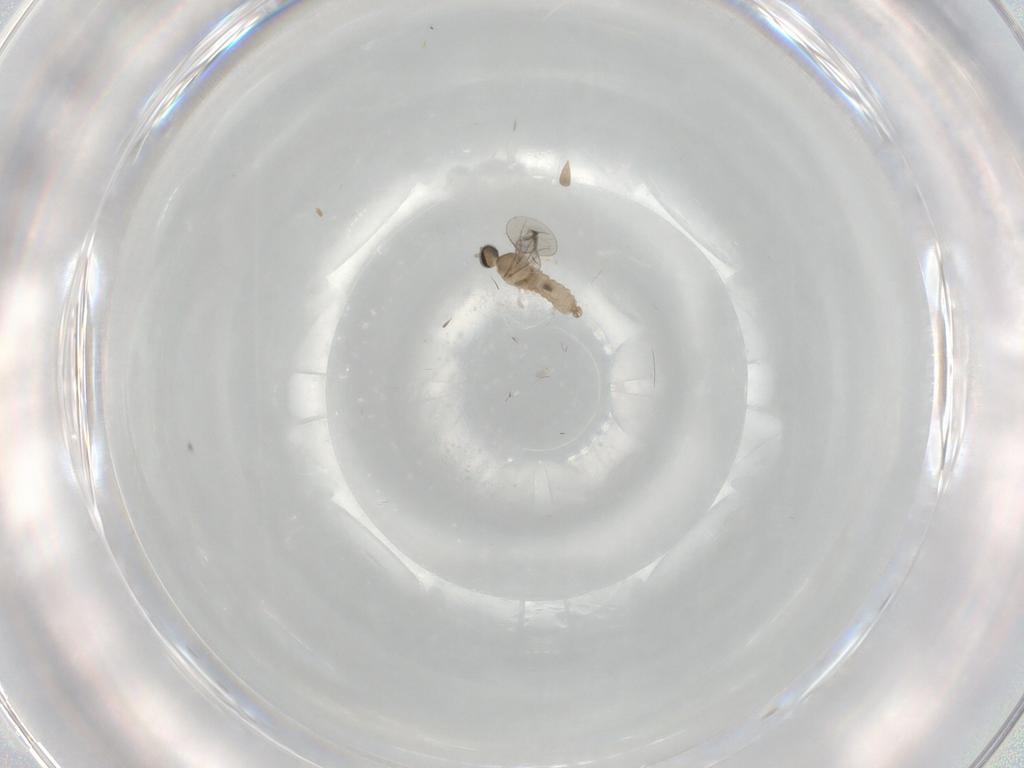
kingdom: Animalia
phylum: Arthropoda
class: Insecta
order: Diptera
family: Cecidomyiidae
